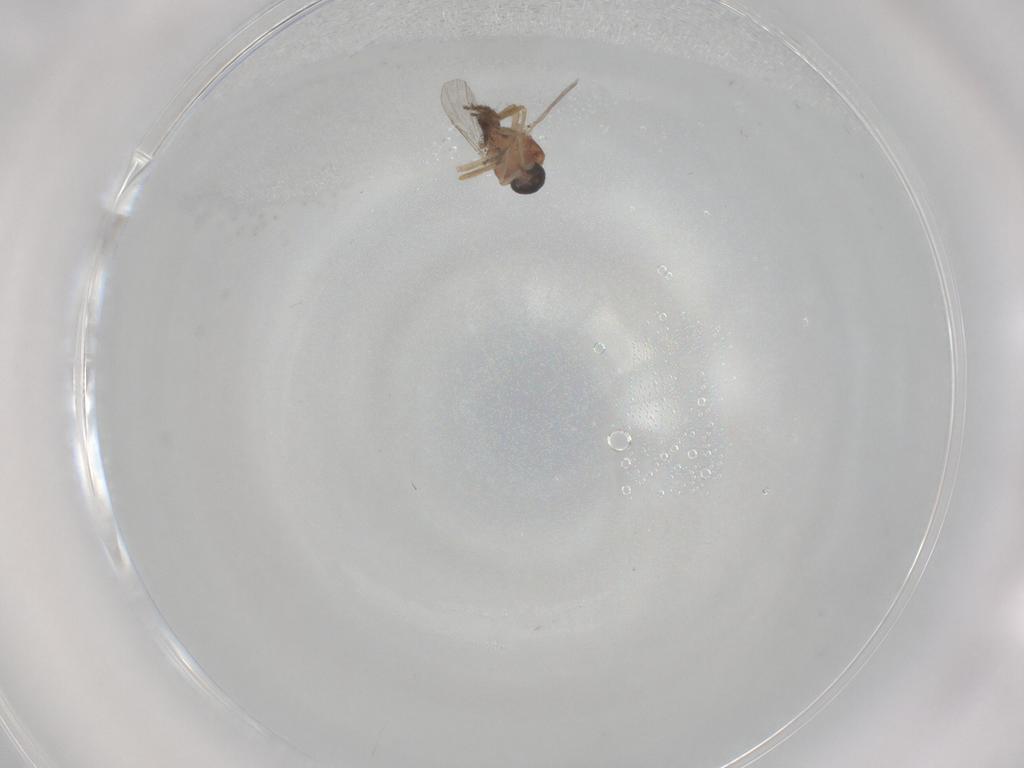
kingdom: Animalia
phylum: Arthropoda
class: Insecta
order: Diptera
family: Ceratopogonidae
